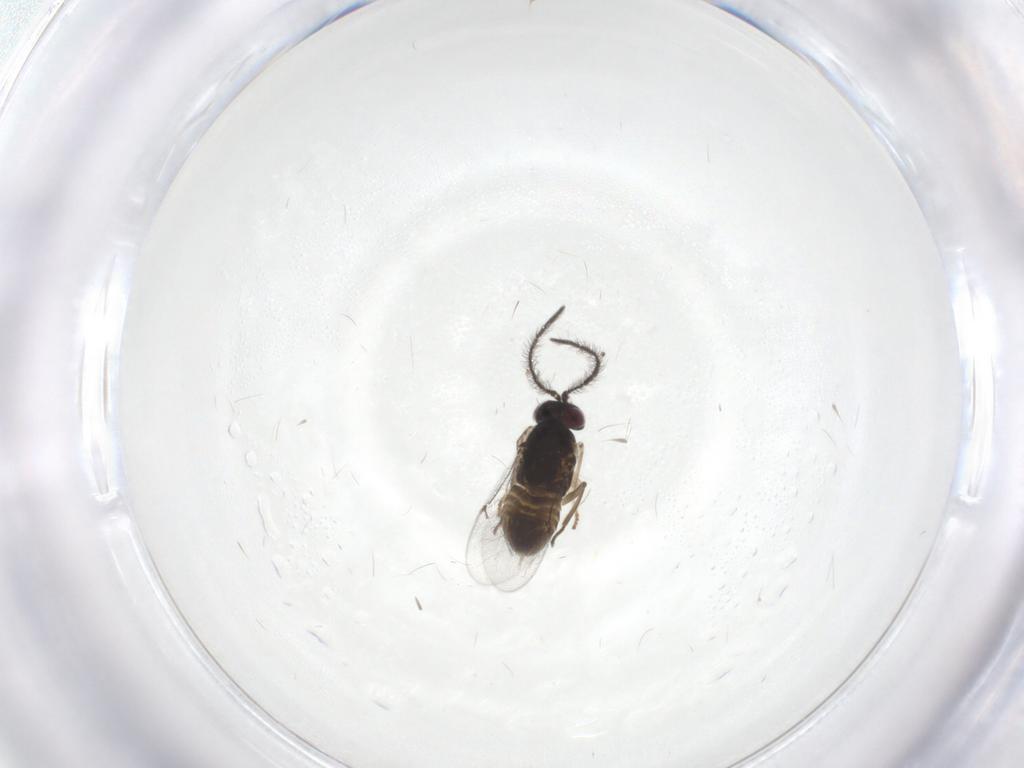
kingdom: Animalia
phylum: Arthropoda
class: Insecta
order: Hymenoptera
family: Encyrtidae
